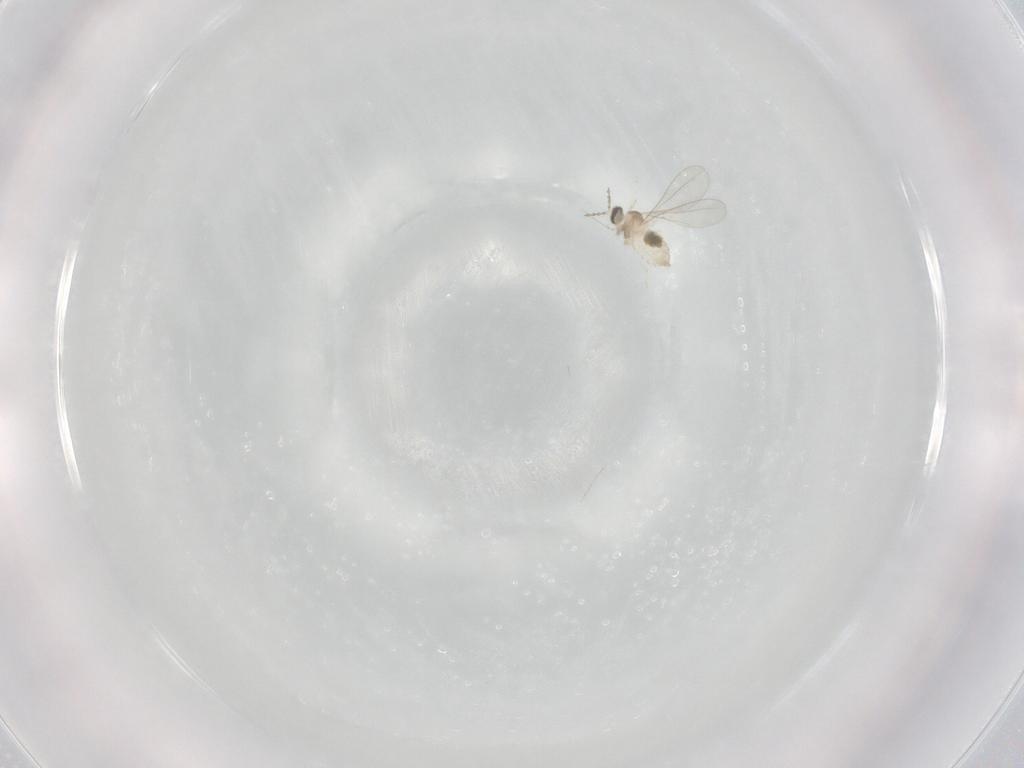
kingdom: Animalia
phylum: Arthropoda
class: Insecta
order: Diptera
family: Cecidomyiidae
